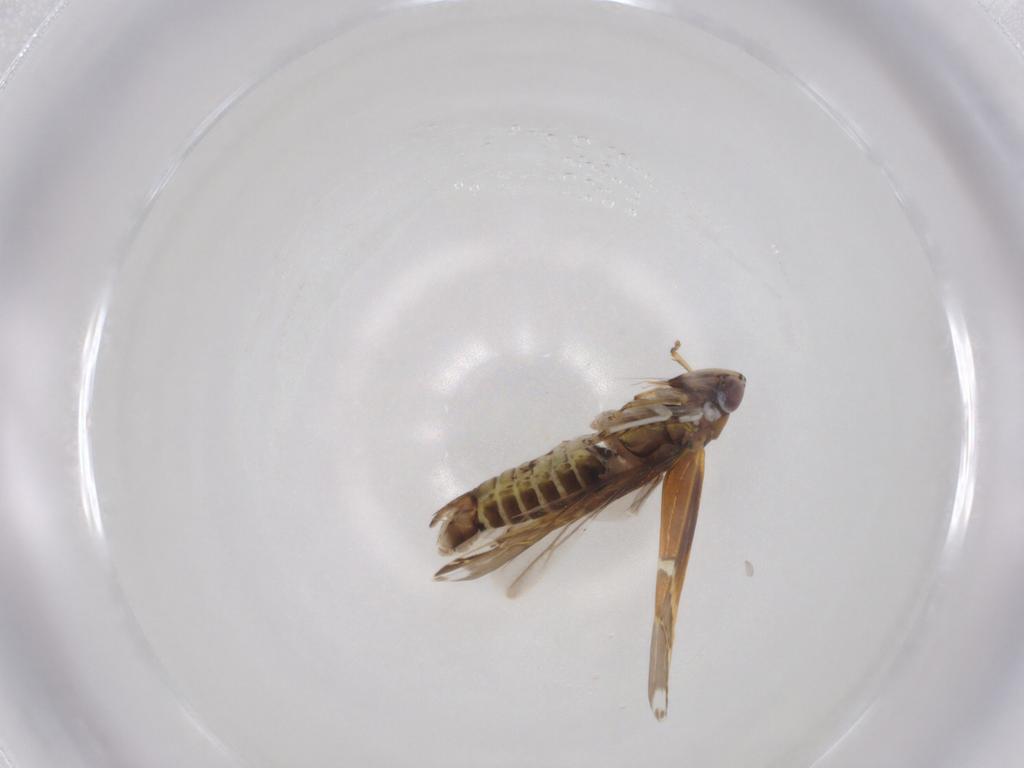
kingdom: Animalia
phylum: Arthropoda
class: Insecta
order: Hemiptera
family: Cicadellidae
